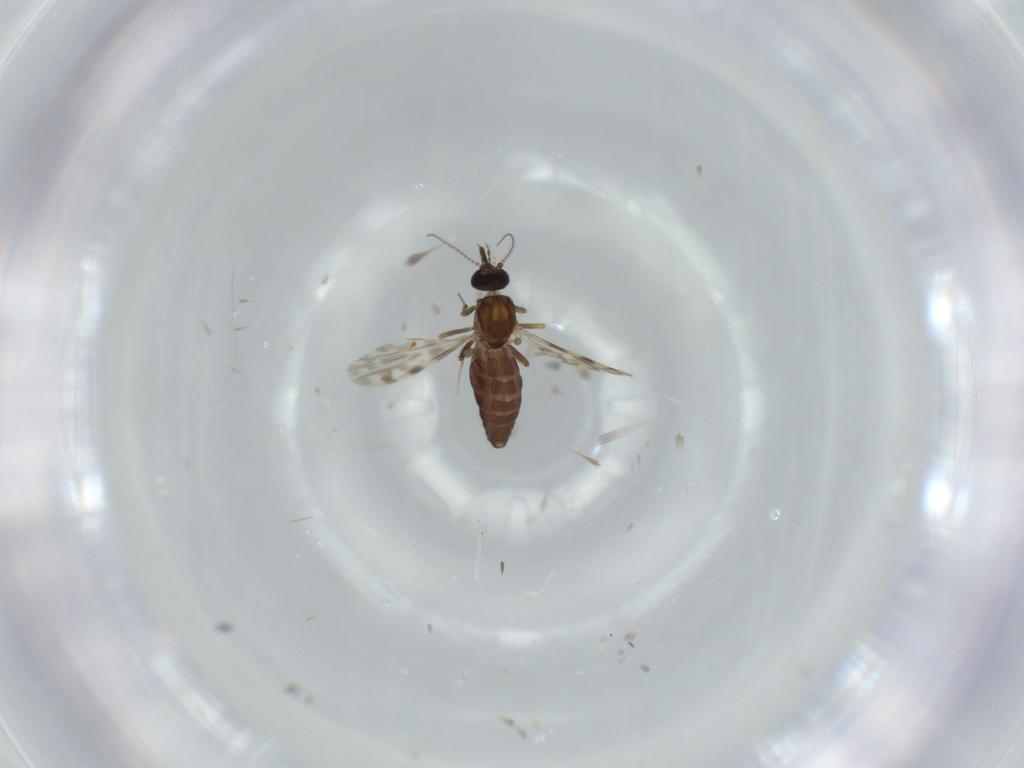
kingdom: Animalia
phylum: Arthropoda
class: Insecta
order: Diptera
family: Ceratopogonidae
